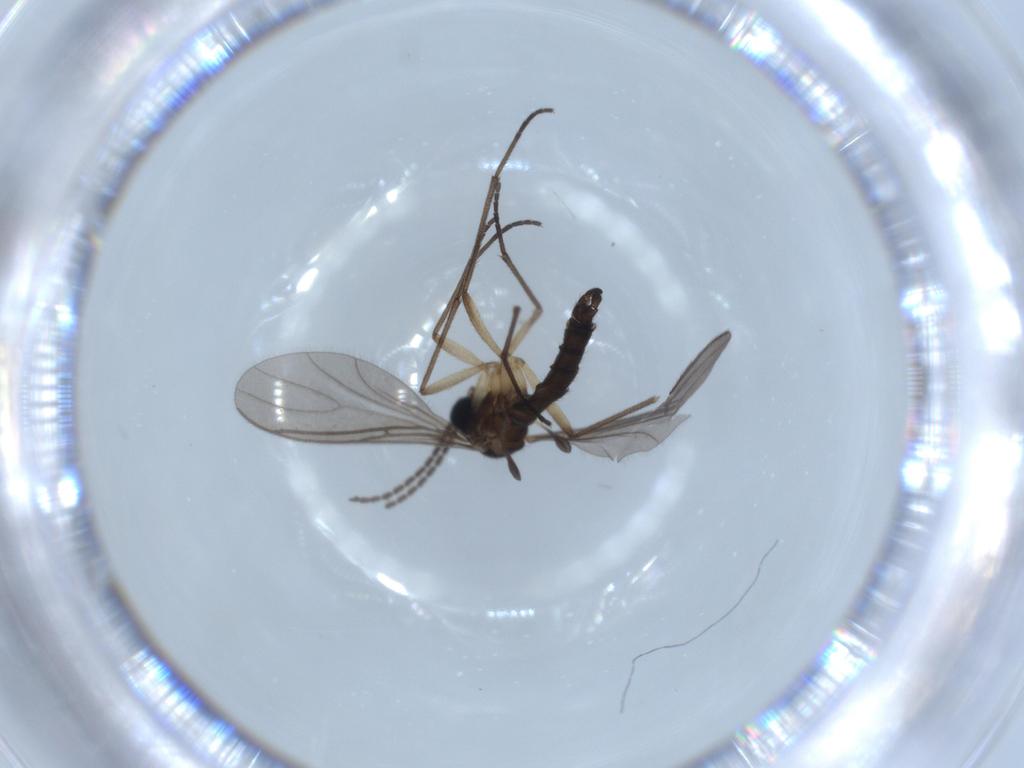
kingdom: Animalia
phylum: Arthropoda
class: Insecta
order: Diptera
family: Sciaridae
